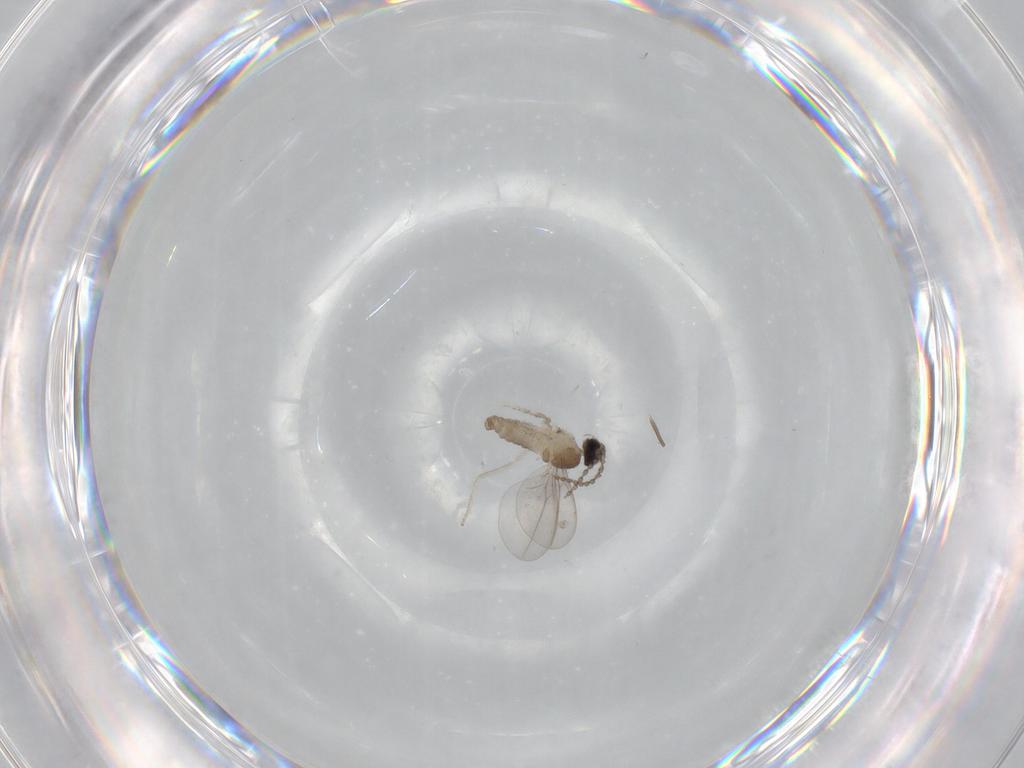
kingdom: Animalia
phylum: Arthropoda
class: Insecta
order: Diptera
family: Cecidomyiidae
